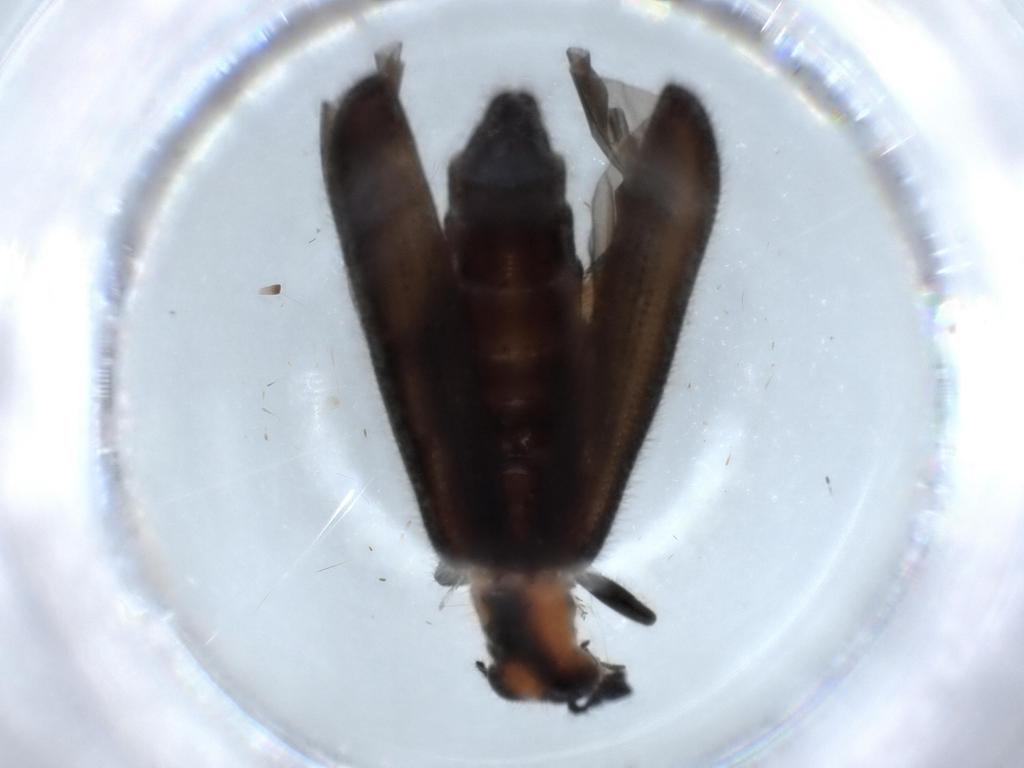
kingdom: Animalia
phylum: Arthropoda
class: Insecta
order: Coleoptera
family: Cleridae
